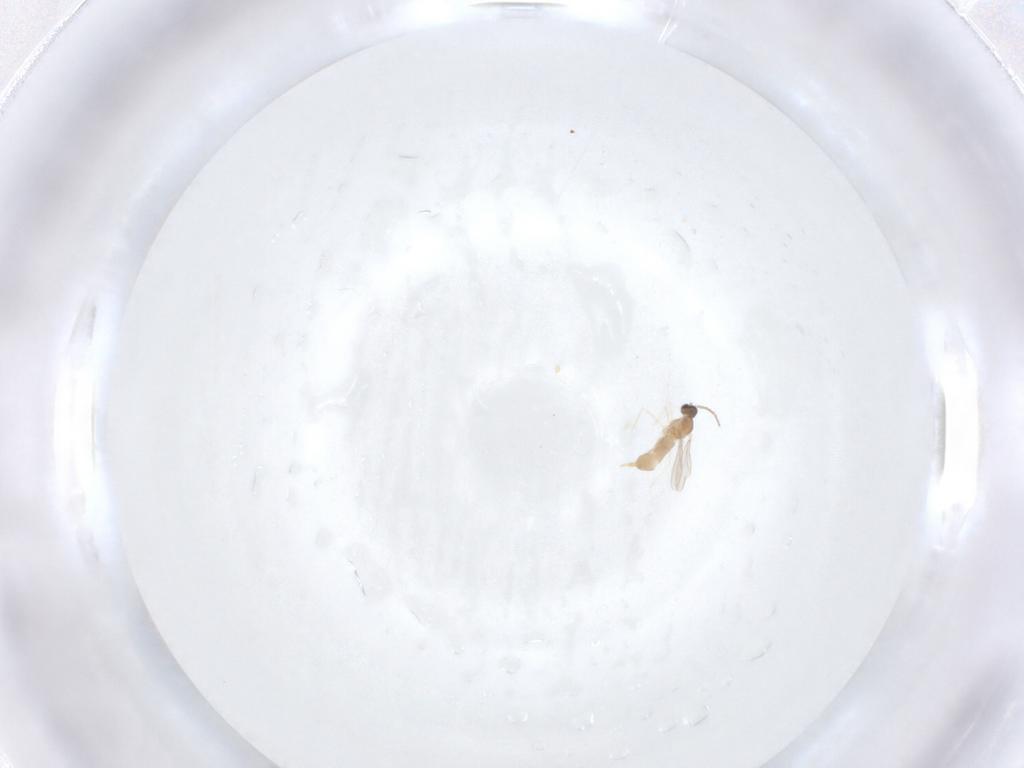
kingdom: Animalia
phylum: Arthropoda
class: Insecta
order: Diptera
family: Cecidomyiidae
